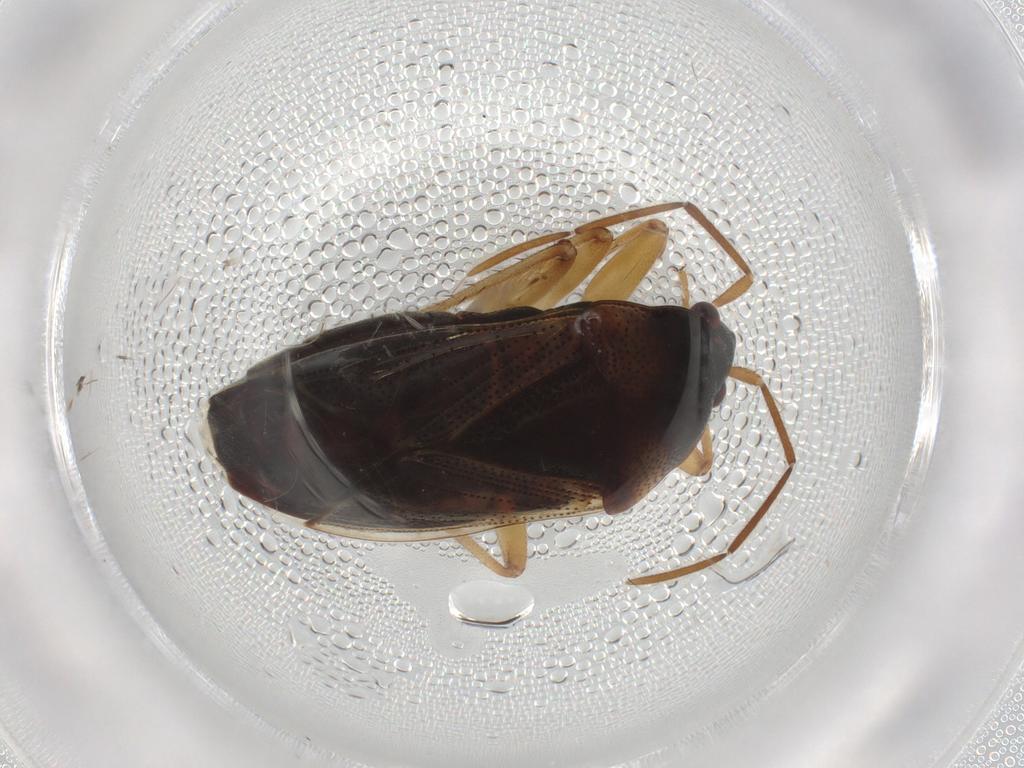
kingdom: Animalia
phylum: Arthropoda
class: Insecta
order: Hemiptera
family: Rhyparochromidae
